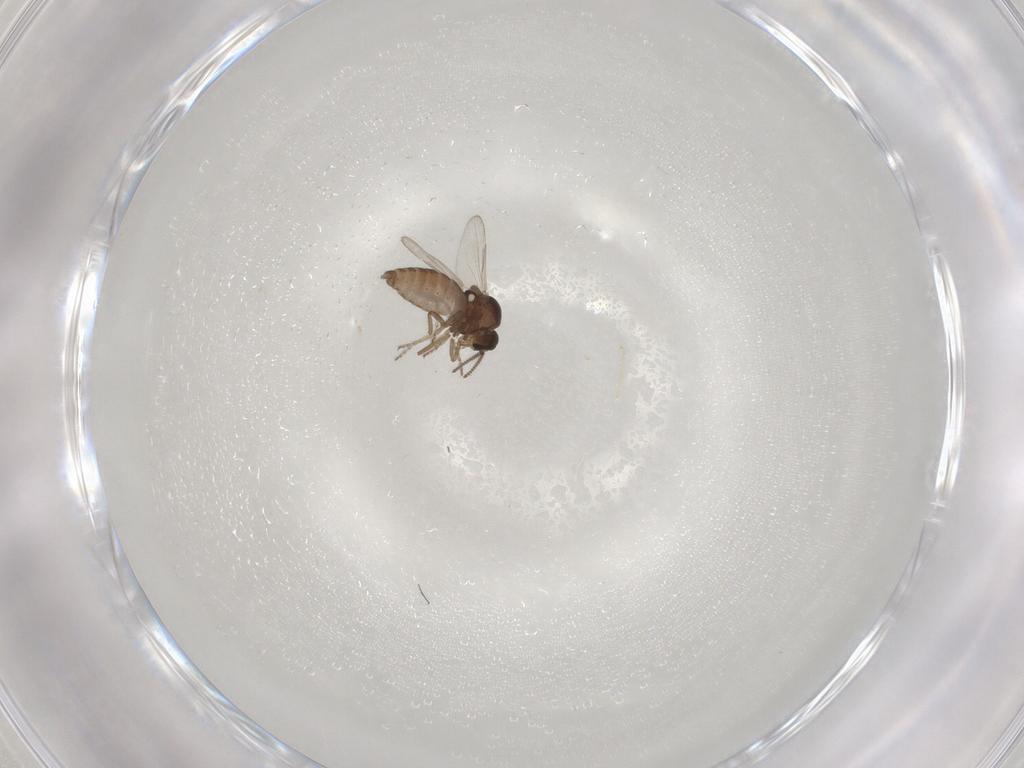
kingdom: Animalia
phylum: Arthropoda
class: Insecta
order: Diptera
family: Ceratopogonidae
